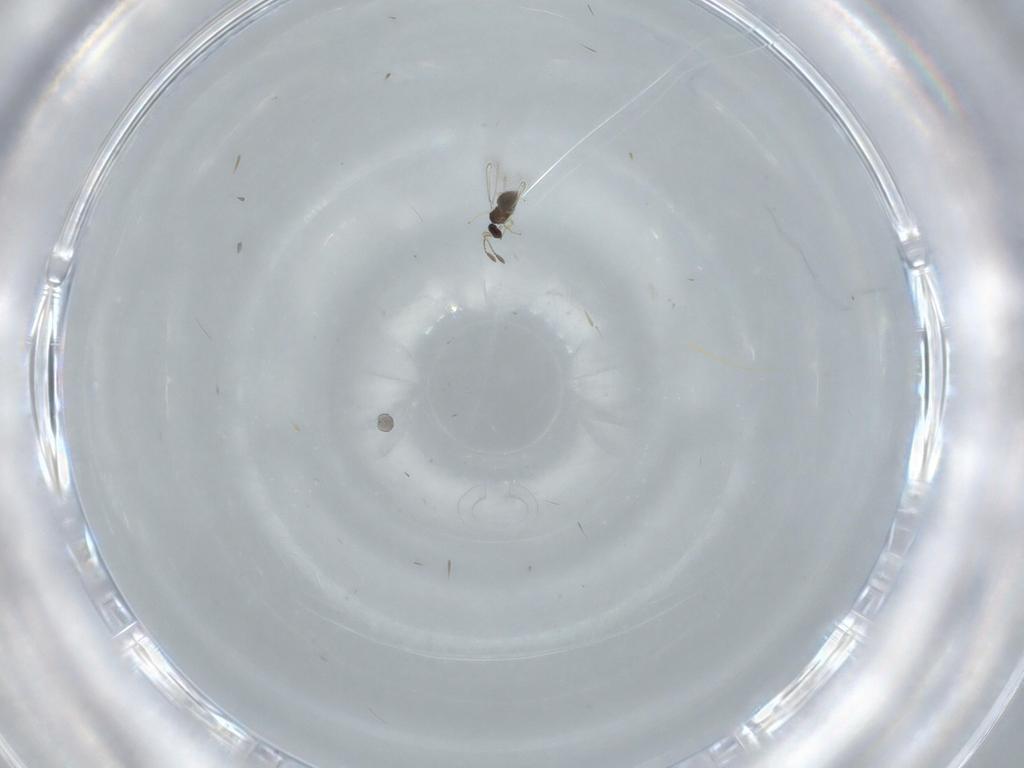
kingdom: Animalia
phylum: Arthropoda
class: Insecta
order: Hymenoptera
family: Mymaridae
